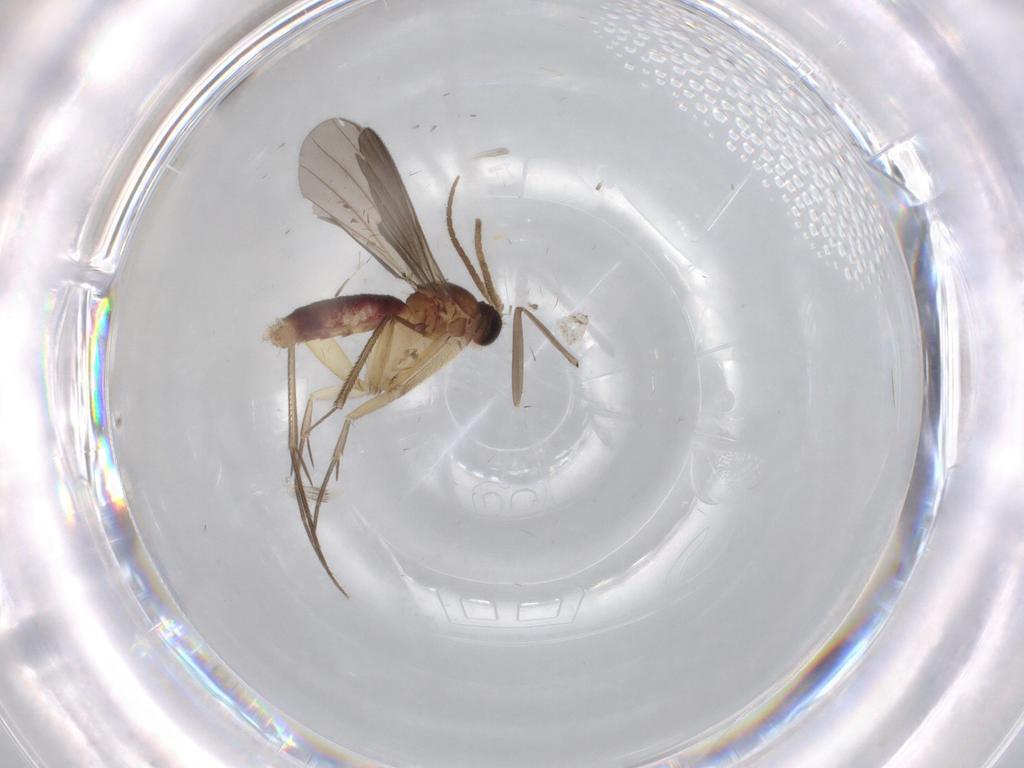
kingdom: Animalia
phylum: Arthropoda
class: Insecta
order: Diptera
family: Mycetophilidae
